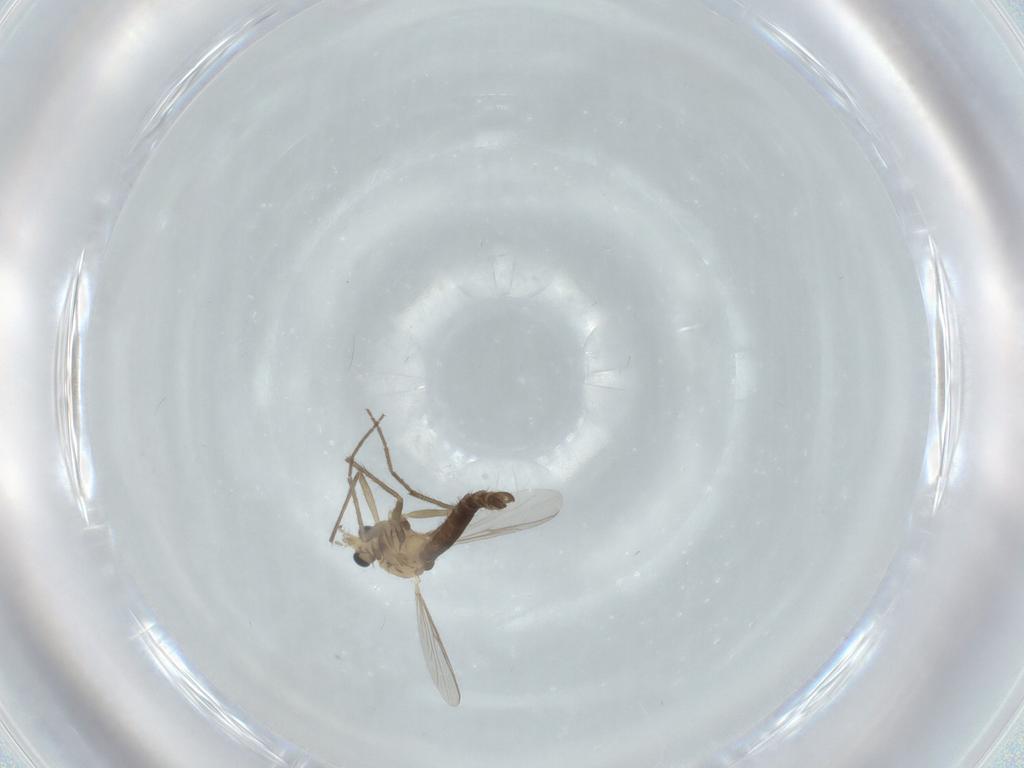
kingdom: Animalia
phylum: Arthropoda
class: Insecta
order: Diptera
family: Chironomidae
